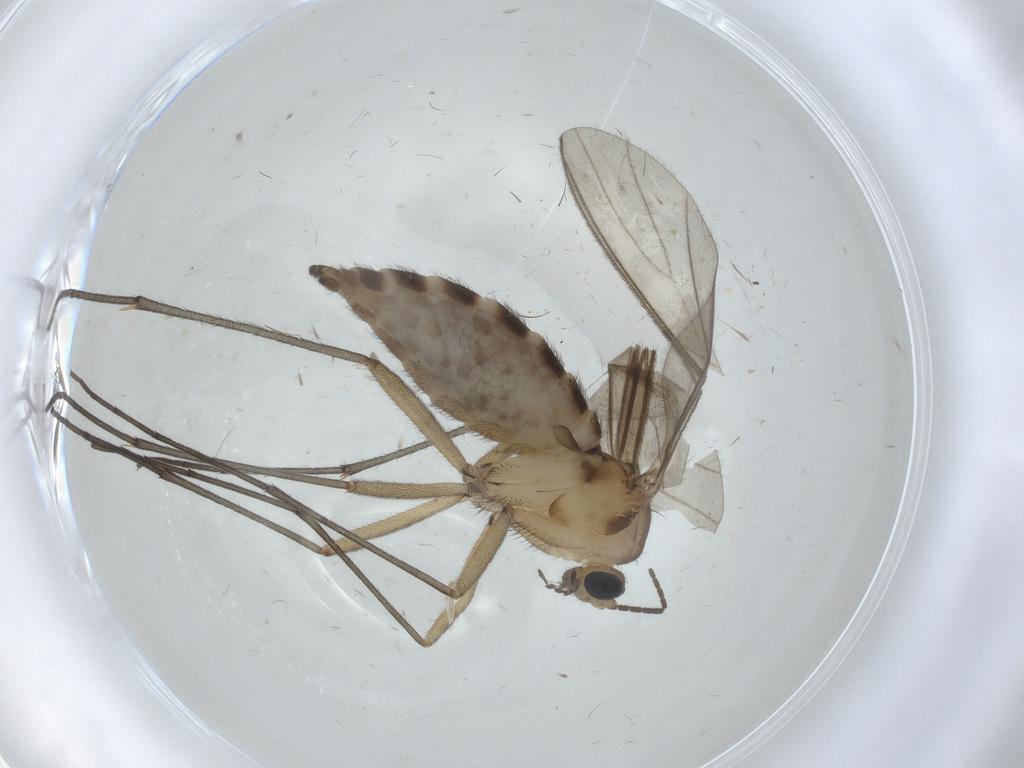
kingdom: Animalia
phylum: Arthropoda
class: Insecta
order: Diptera
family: Sciaridae
